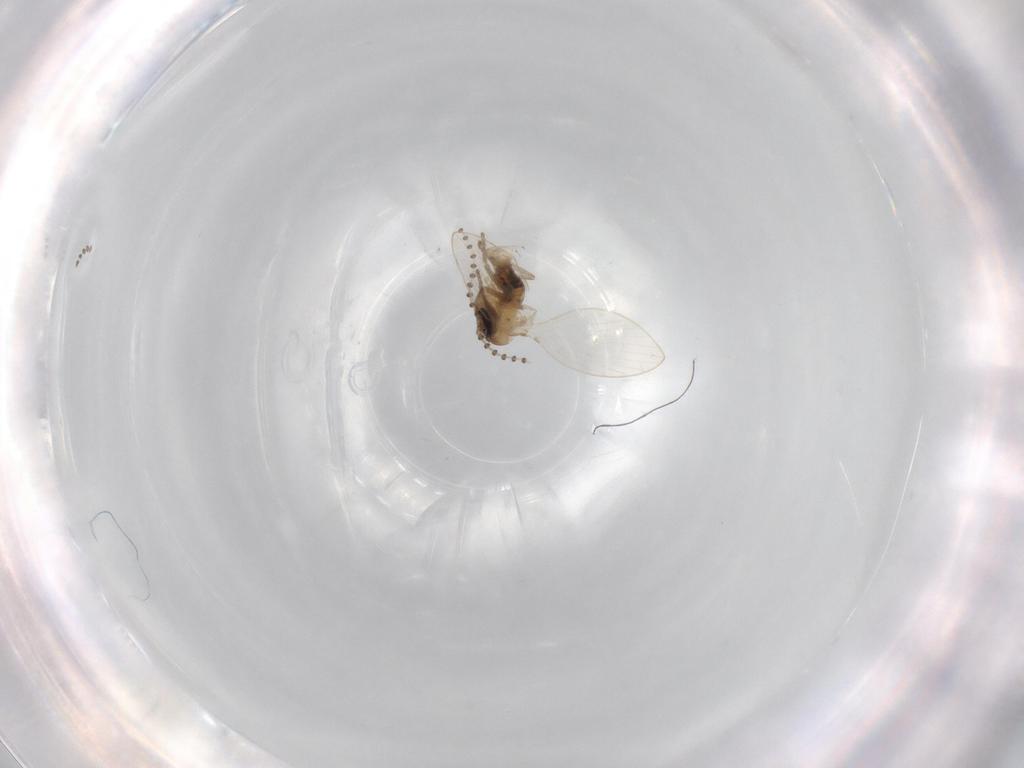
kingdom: Animalia
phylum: Arthropoda
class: Insecta
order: Diptera
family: Psychodidae
